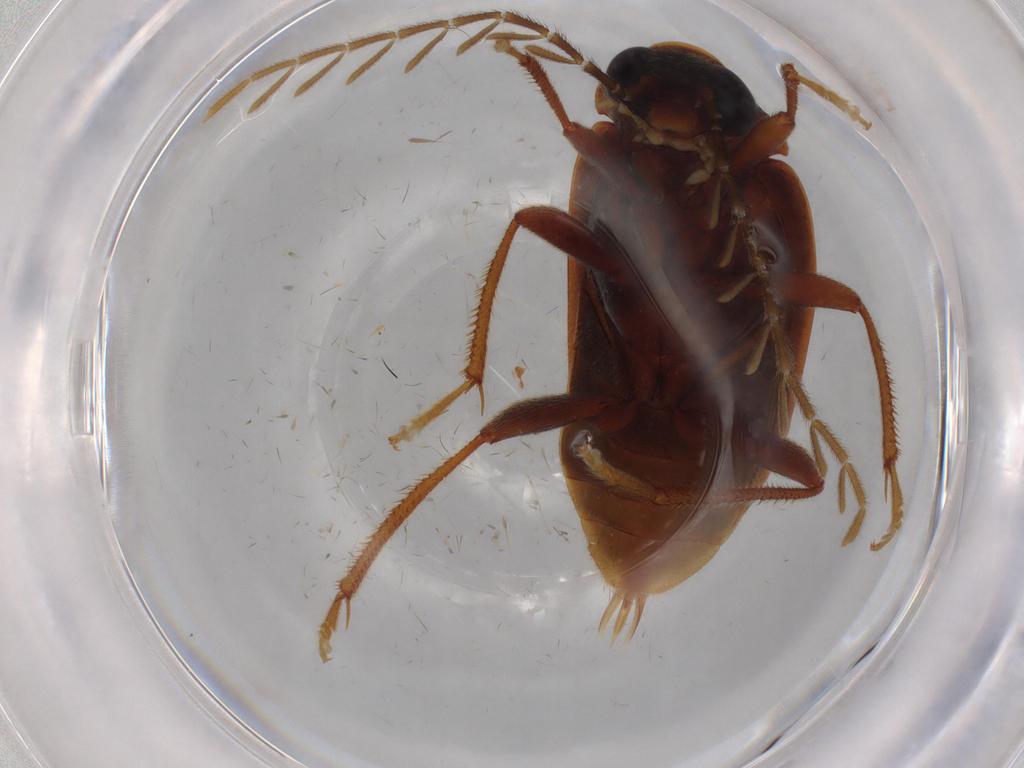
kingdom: Animalia
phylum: Arthropoda
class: Insecta
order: Coleoptera
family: Ptilodactylidae
